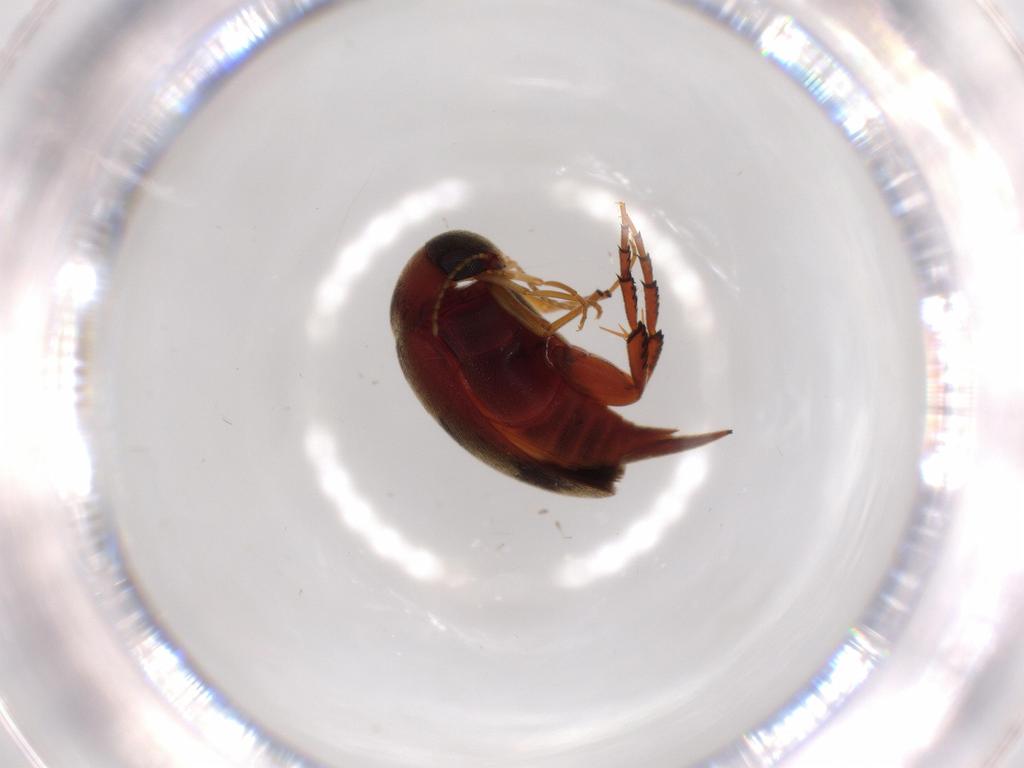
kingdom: Animalia
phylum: Arthropoda
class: Insecta
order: Coleoptera
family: Chrysomelidae
